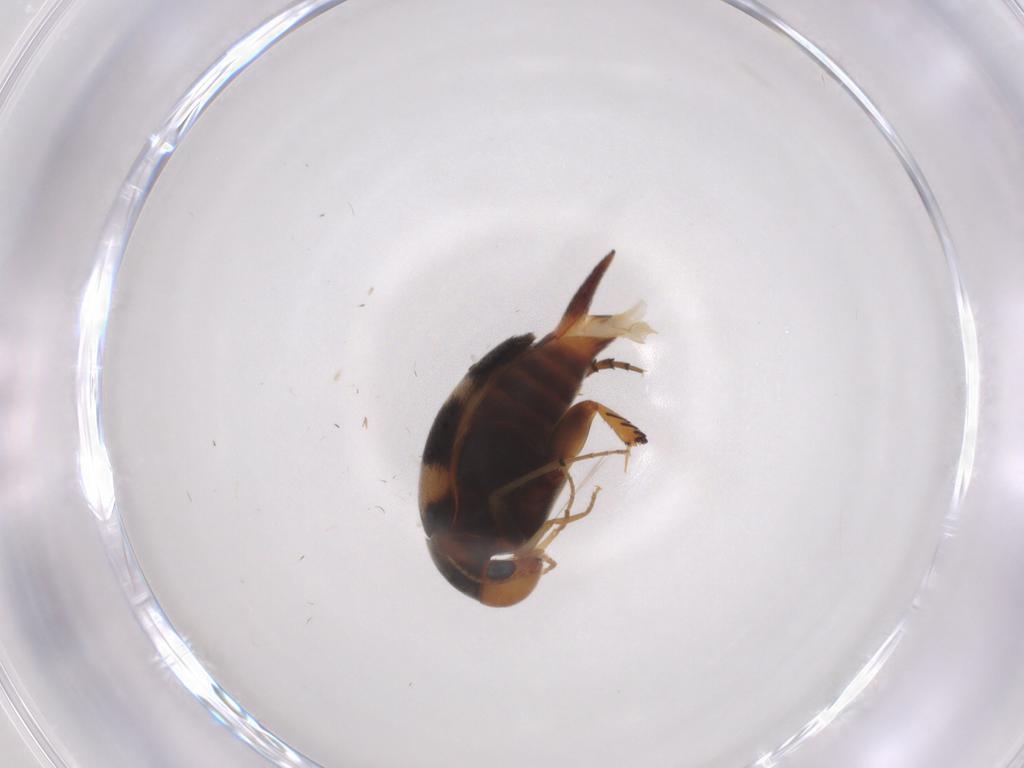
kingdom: Animalia
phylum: Arthropoda
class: Insecta
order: Coleoptera
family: Mordellidae
